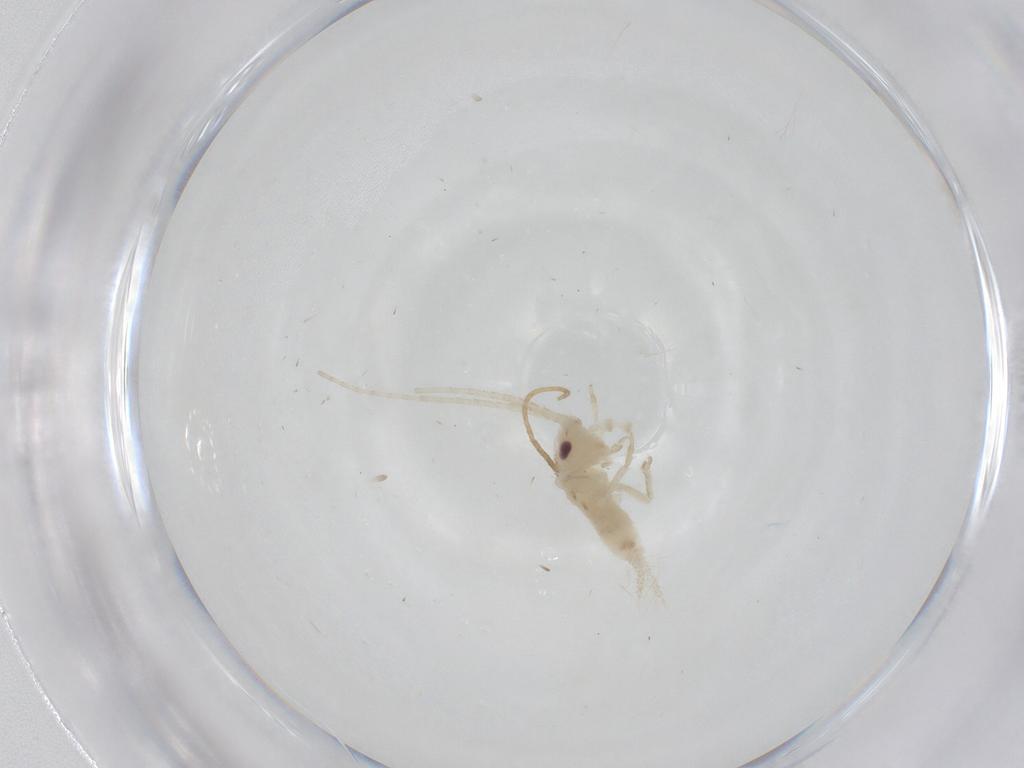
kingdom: Animalia
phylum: Arthropoda
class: Insecta
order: Orthoptera
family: Trigonidiidae
